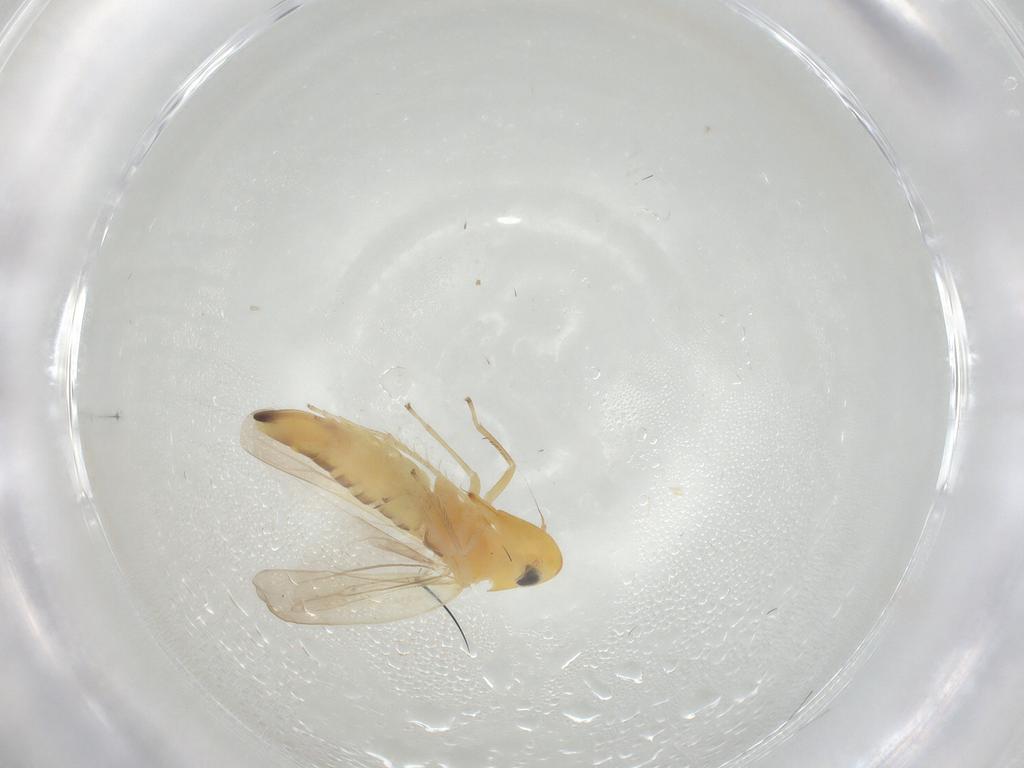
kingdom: Animalia
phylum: Arthropoda
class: Insecta
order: Hemiptera
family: Cicadellidae
